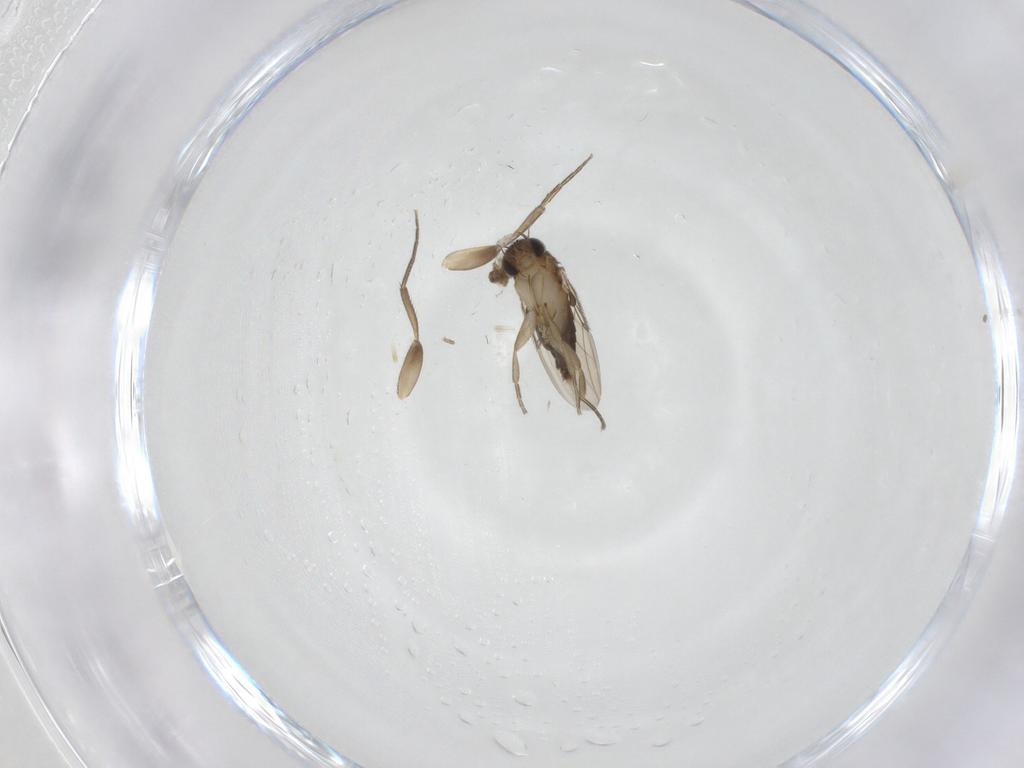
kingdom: Animalia
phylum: Arthropoda
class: Insecta
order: Diptera
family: Phoridae
